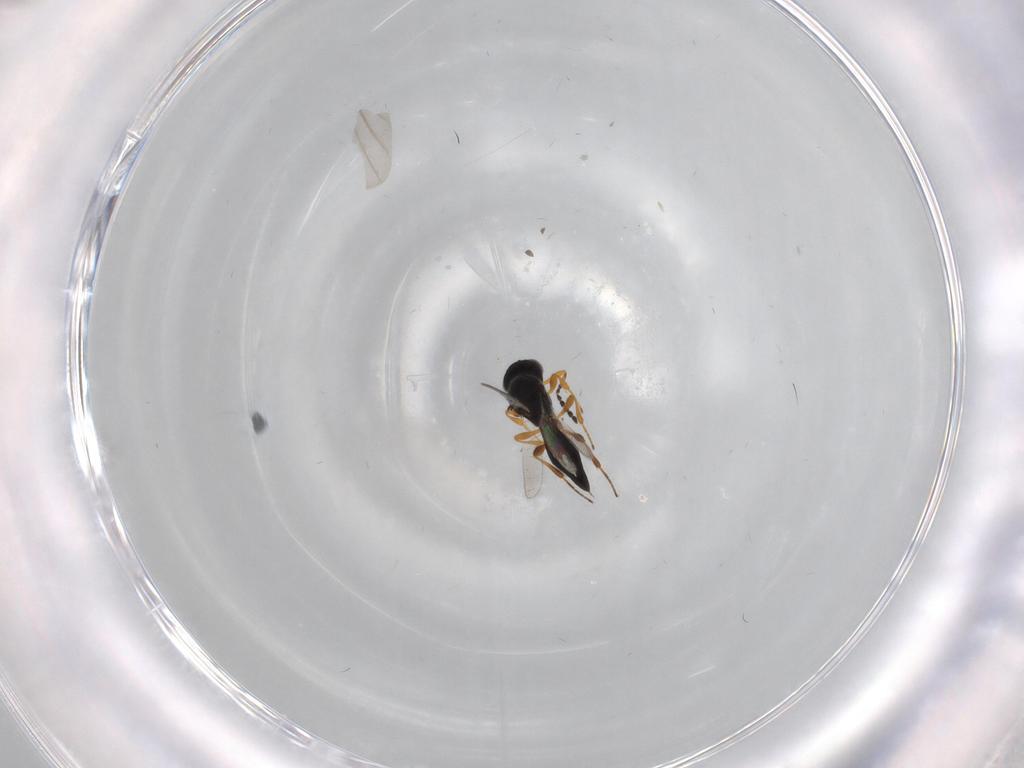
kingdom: Animalia
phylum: Arthropoda
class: Insecta
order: Hymenoptera
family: Platygastridae
